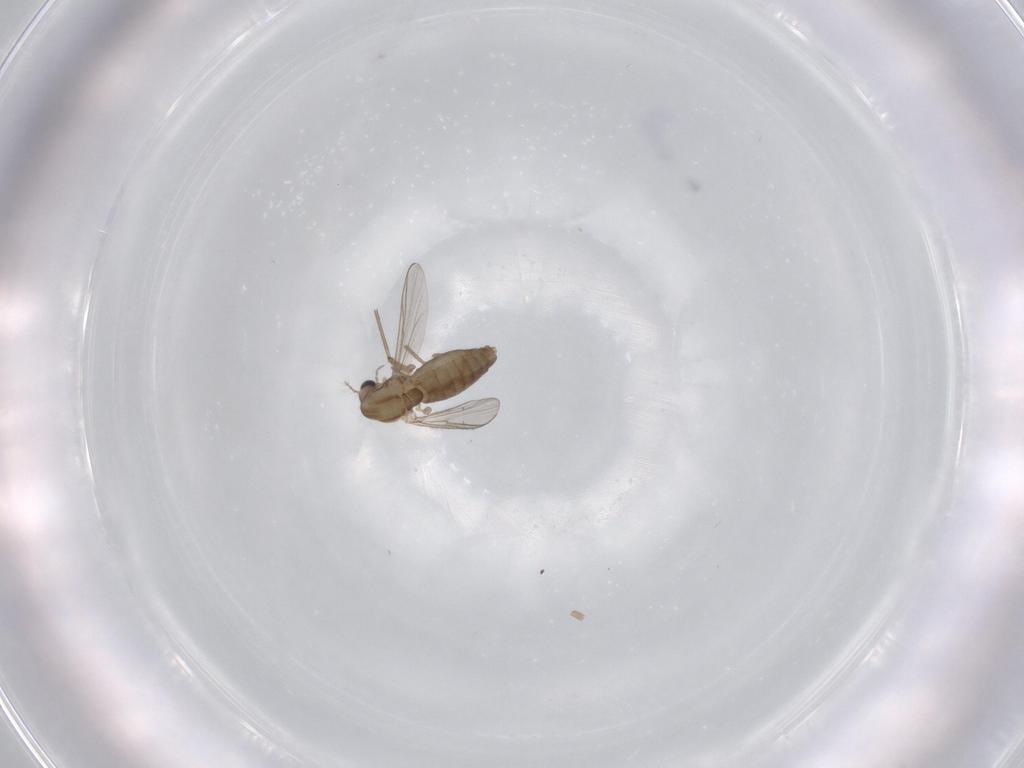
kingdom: Animalia
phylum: Arthropoda
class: Insecta
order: Diptera
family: Chironomidae
